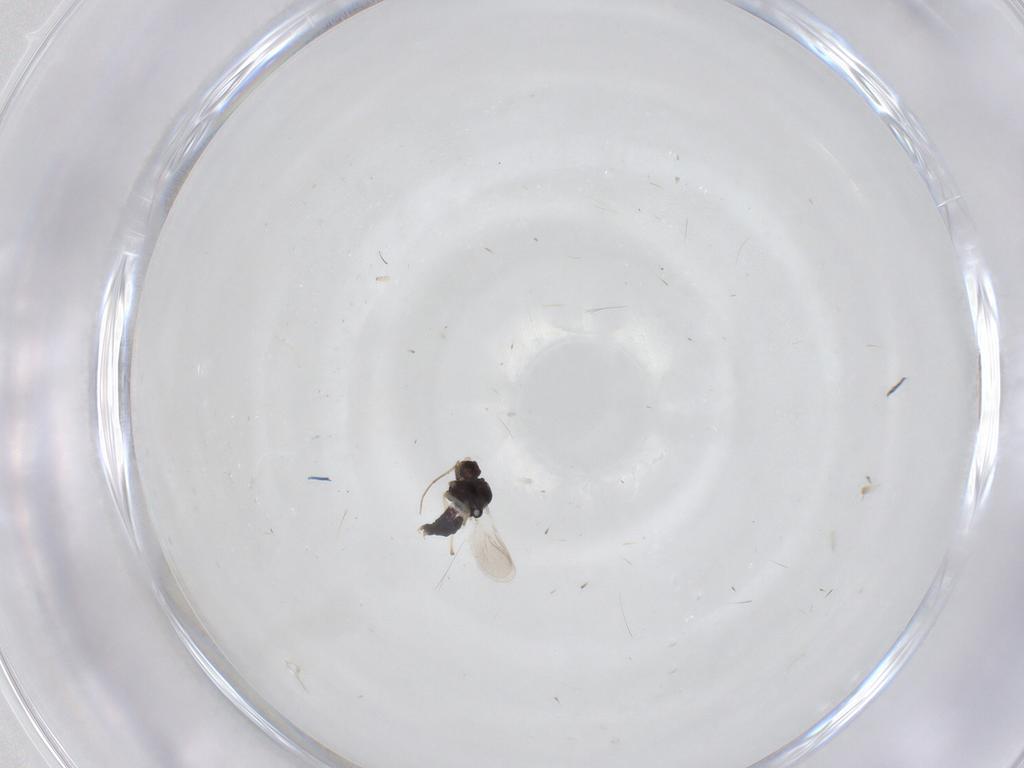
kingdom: Animalia
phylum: Arthropoda
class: Insecta
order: Diptera
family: Chironomidae
